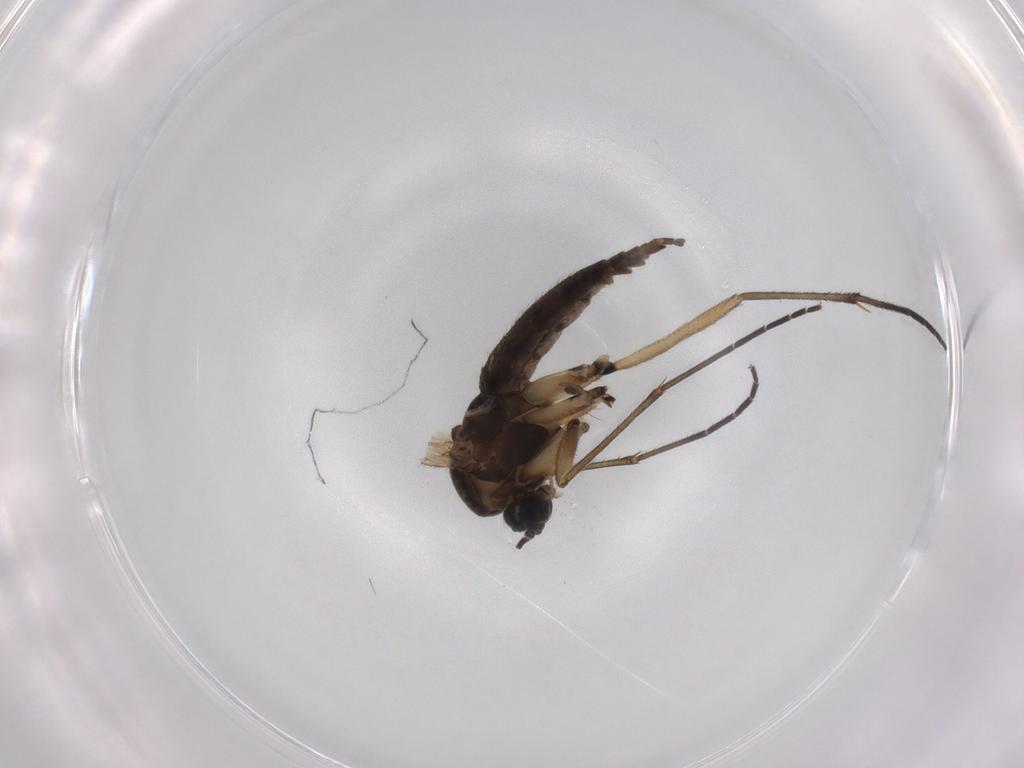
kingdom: Animalia
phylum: Arthropoda
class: Insecta
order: Diptera
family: Sciaridae
